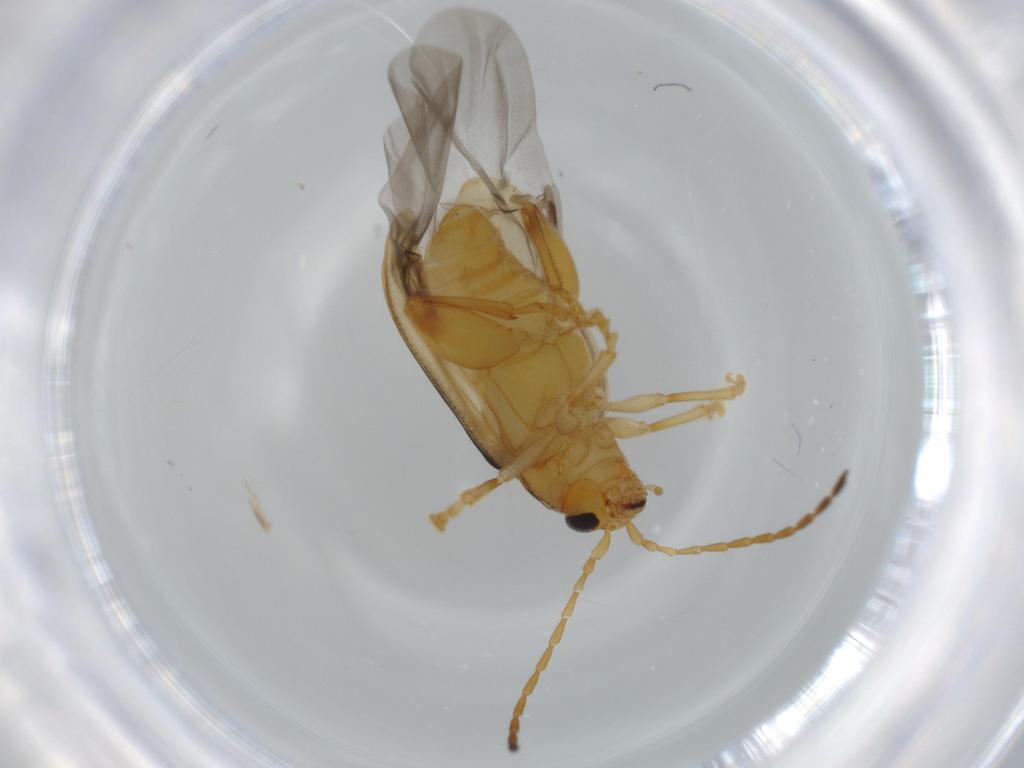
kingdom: Animalia
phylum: Arthropoda
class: Insecta
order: Coleoptera
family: Chrysomelidae
